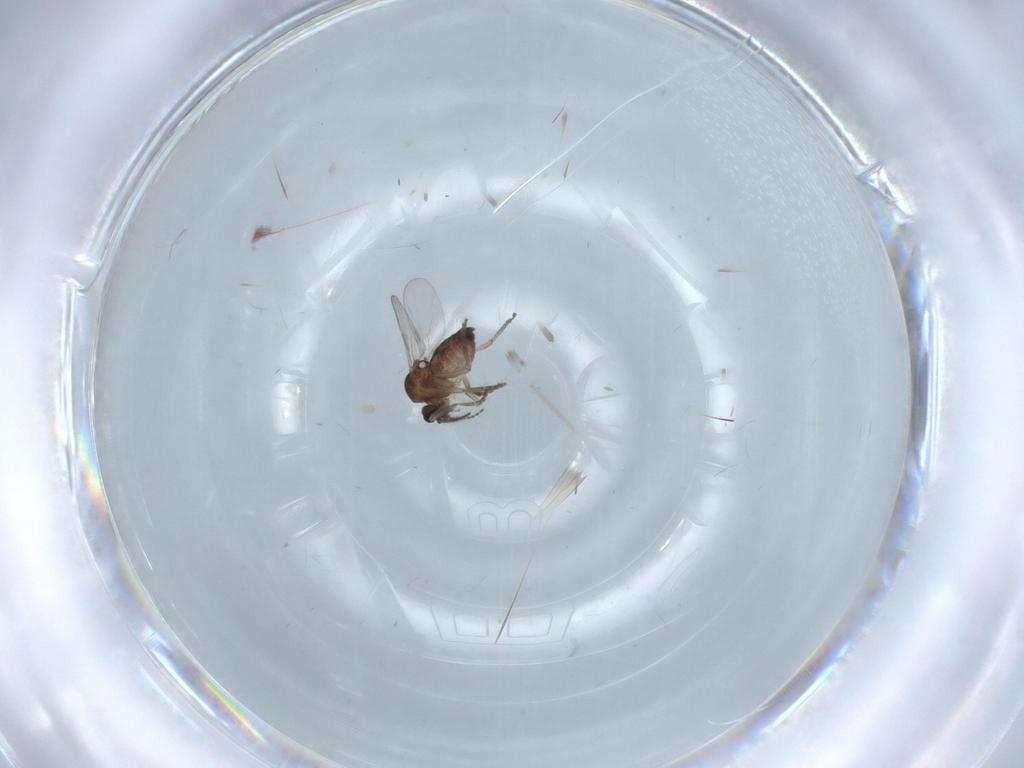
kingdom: Animalia
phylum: Arthropoda
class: Insecta
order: Diptera
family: Ceratopogonidae
